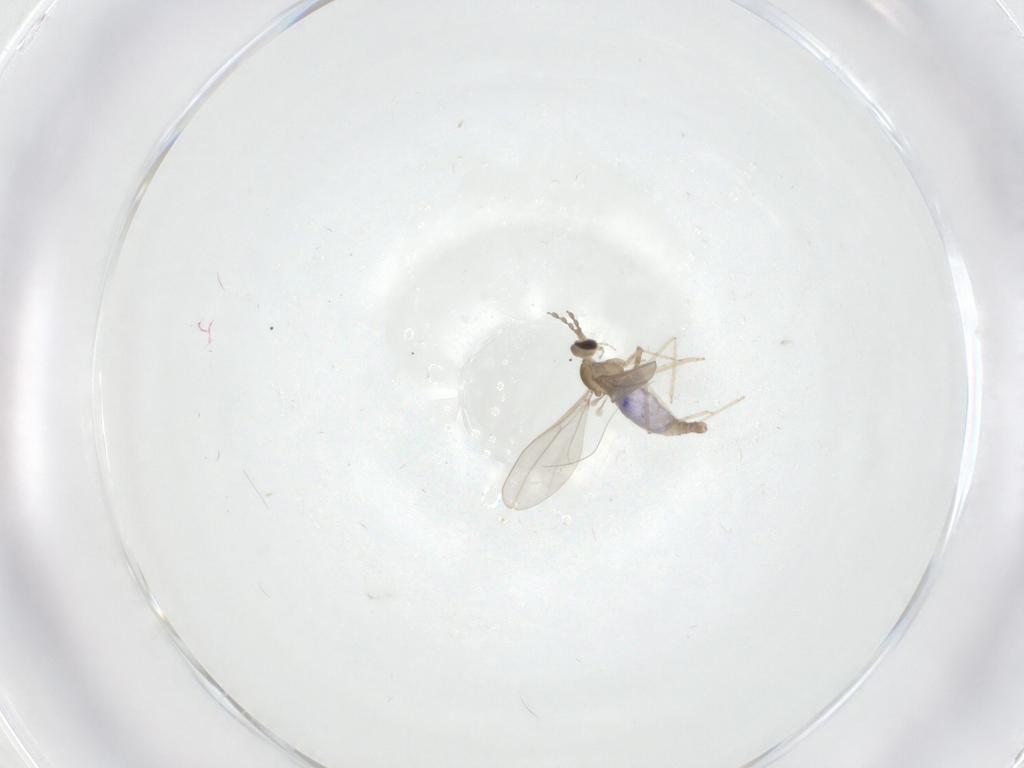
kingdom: Animalia
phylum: Arthropoda
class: Insecta
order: Diptera
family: Cecidomyiidae
